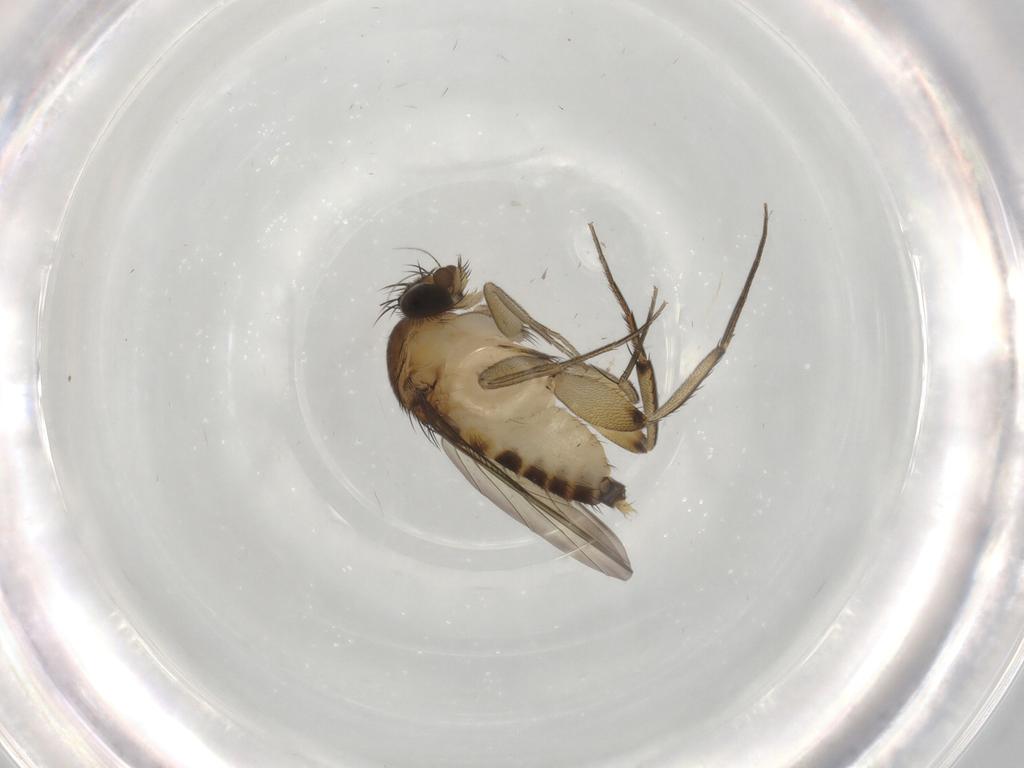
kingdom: Animalia
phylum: Arthropoda
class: Insecta
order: Diptera
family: Phoridae
